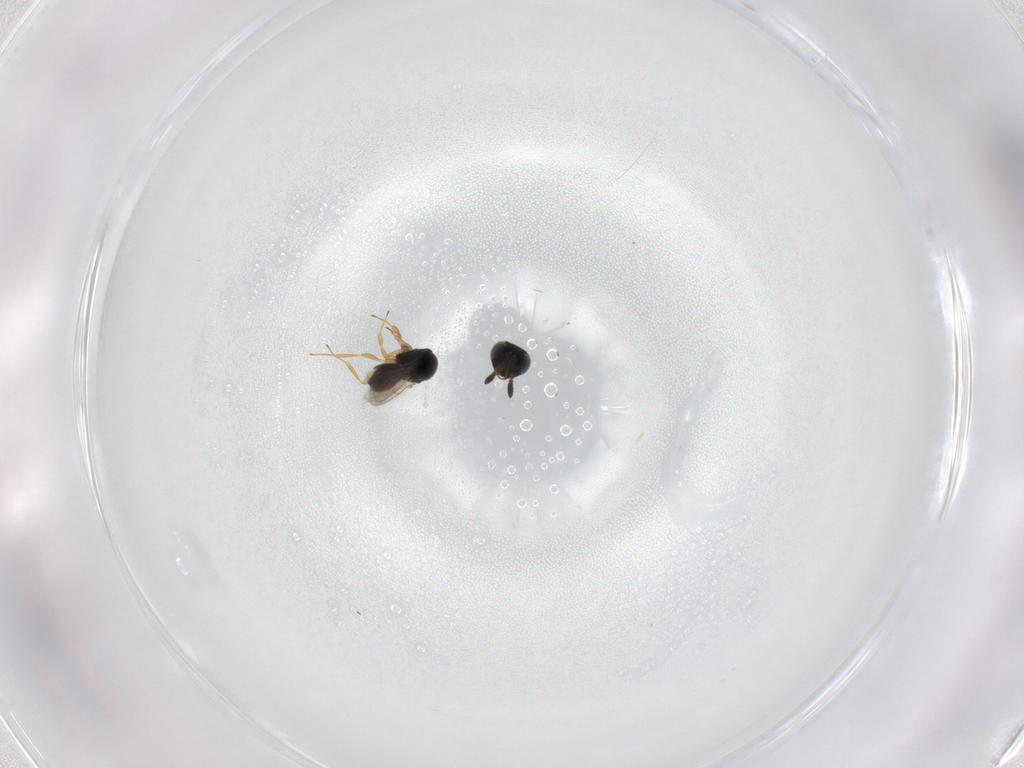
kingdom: Animalia
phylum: Arthropoda
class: Insecta
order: Hymenoptera
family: Scelionidae
